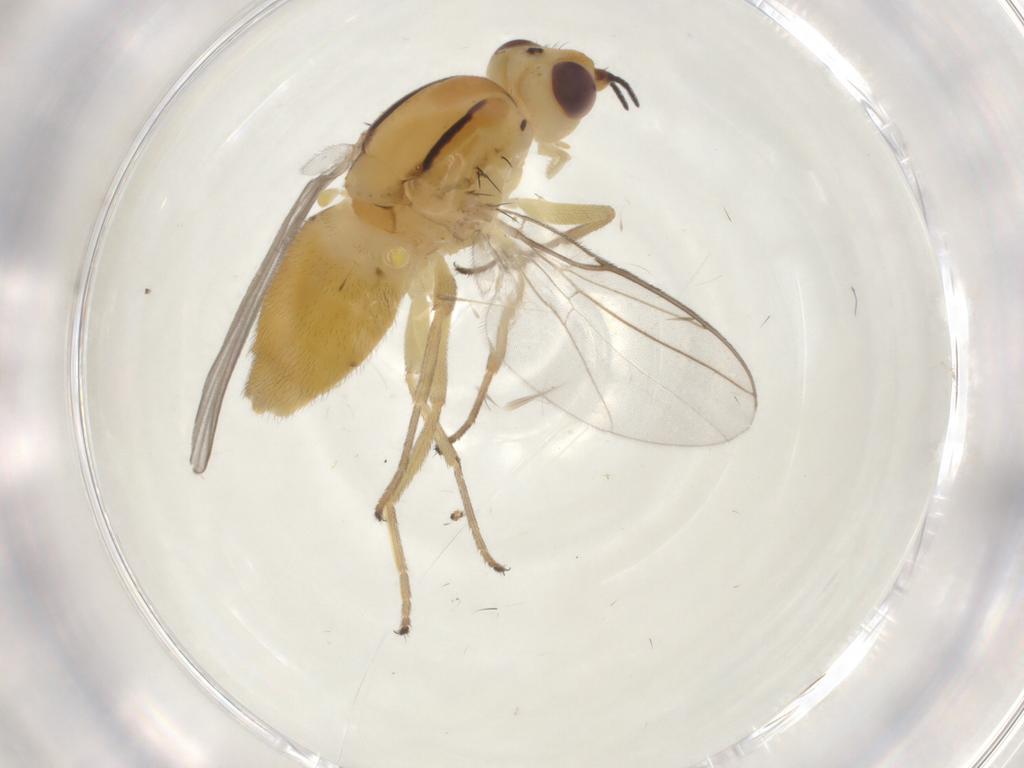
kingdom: Animalia
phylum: Arthropoda
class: Insecta
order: Diptera
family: Chloropidae
